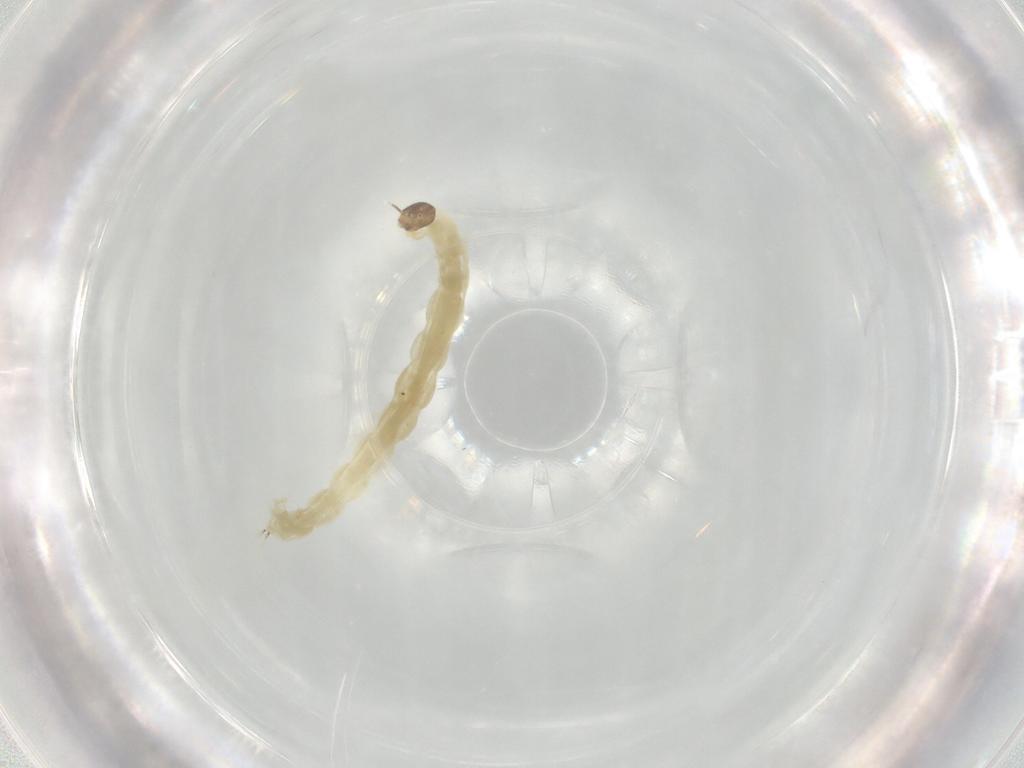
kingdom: Animalia
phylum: Arthropoda
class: Insecta
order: Diptera
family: Chironomidae
